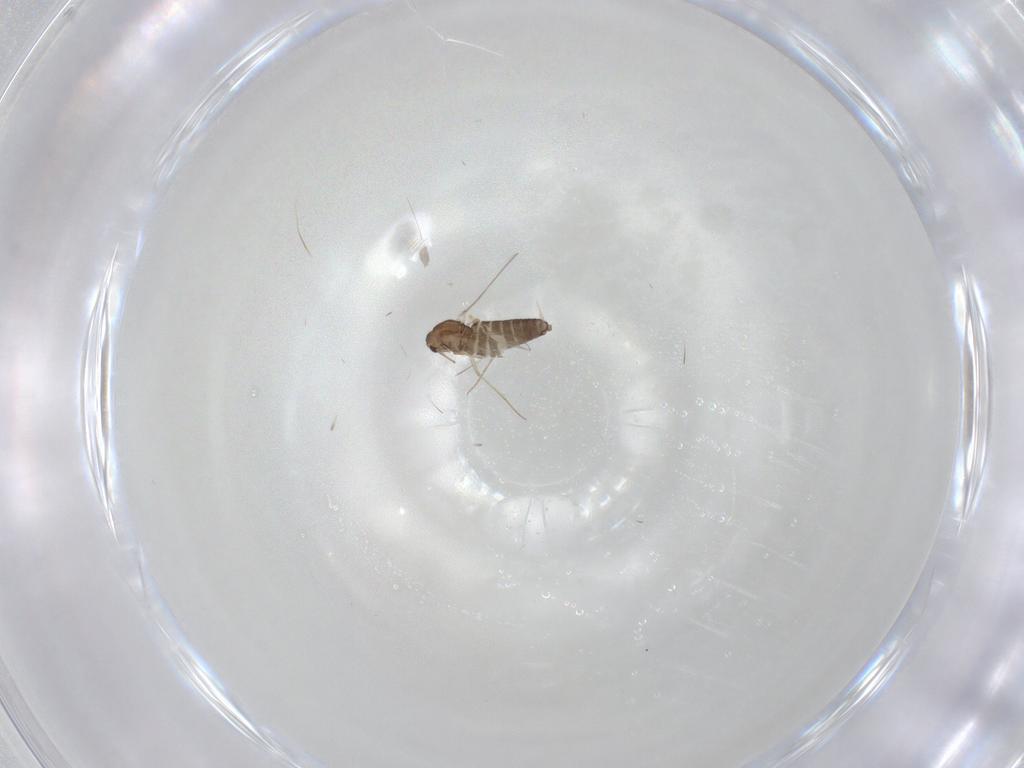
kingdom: Animalia
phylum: Arthropoda
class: Insecta
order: Diptera
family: Chironomidae
